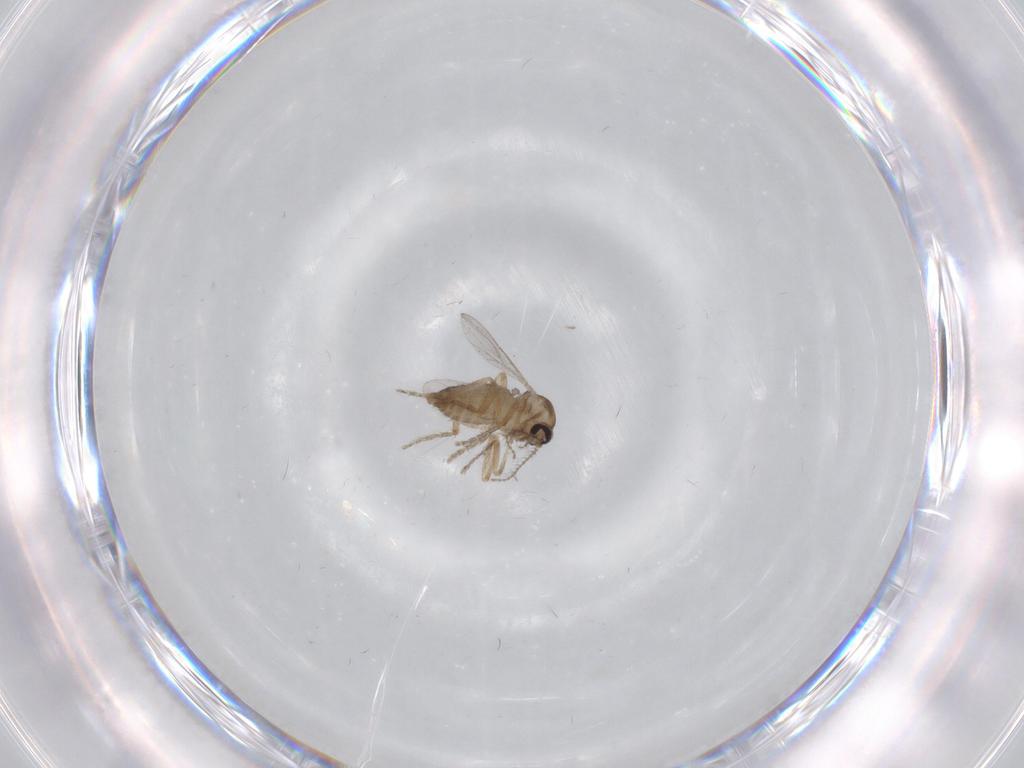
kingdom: Animalia
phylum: Arthropoda
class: Insecta
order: Diptera
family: Ceratopogonidae
